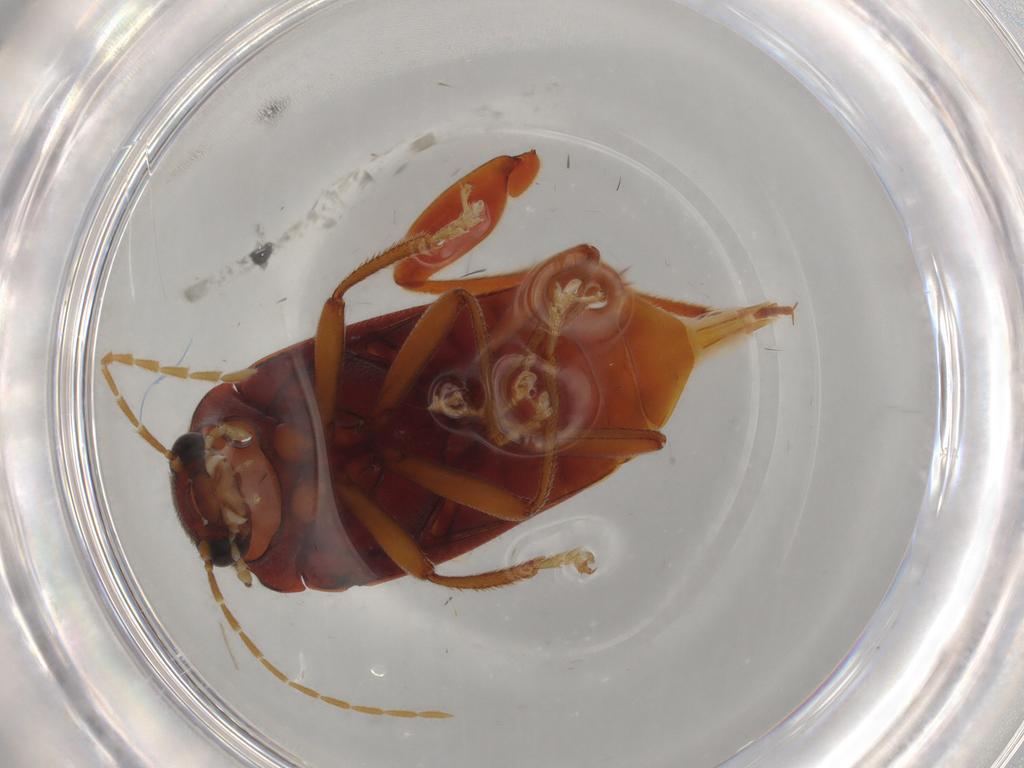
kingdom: Animalia
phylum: Arthropoda
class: Insecta
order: Coleoptera
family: Ptilodactylidae
